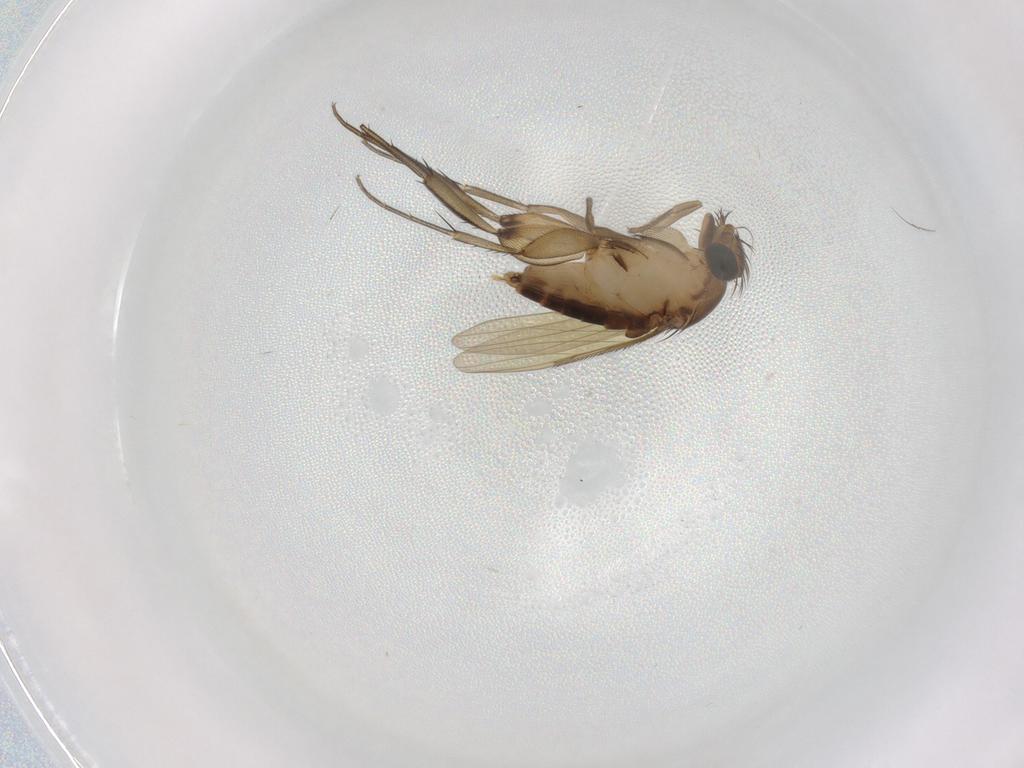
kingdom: Animalia
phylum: Arthropoda
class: Insecta
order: Diptera
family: Phoridae
